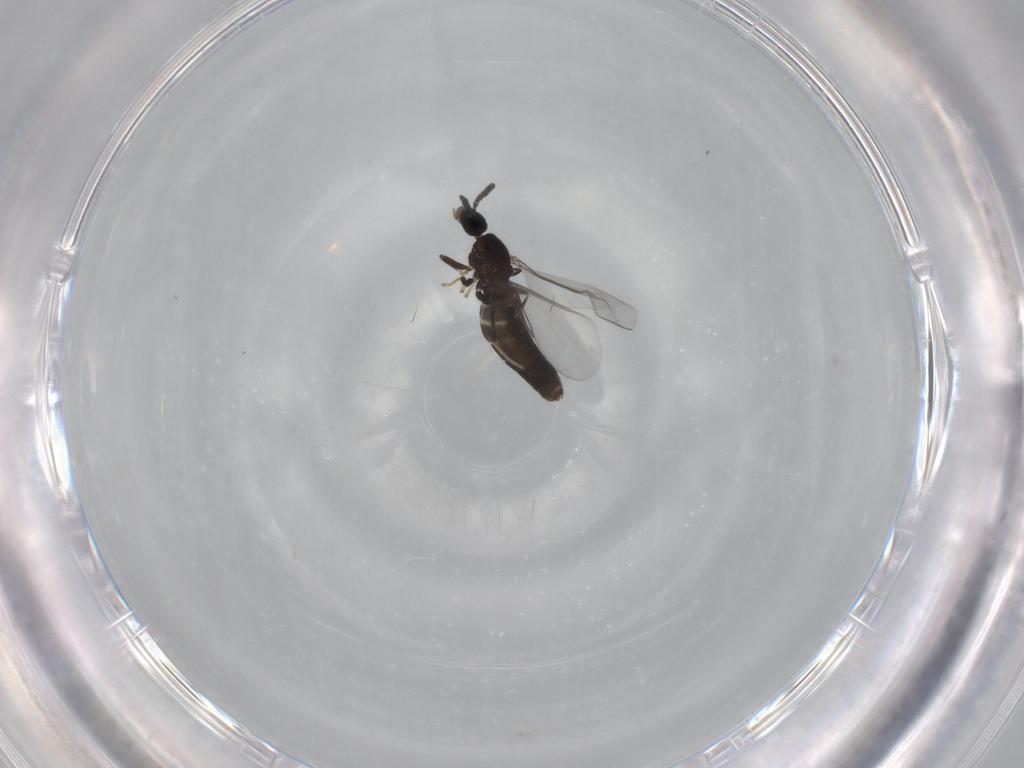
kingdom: Animalia
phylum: Arthropoda
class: Insecta
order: Diptera
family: Scatopsidae
